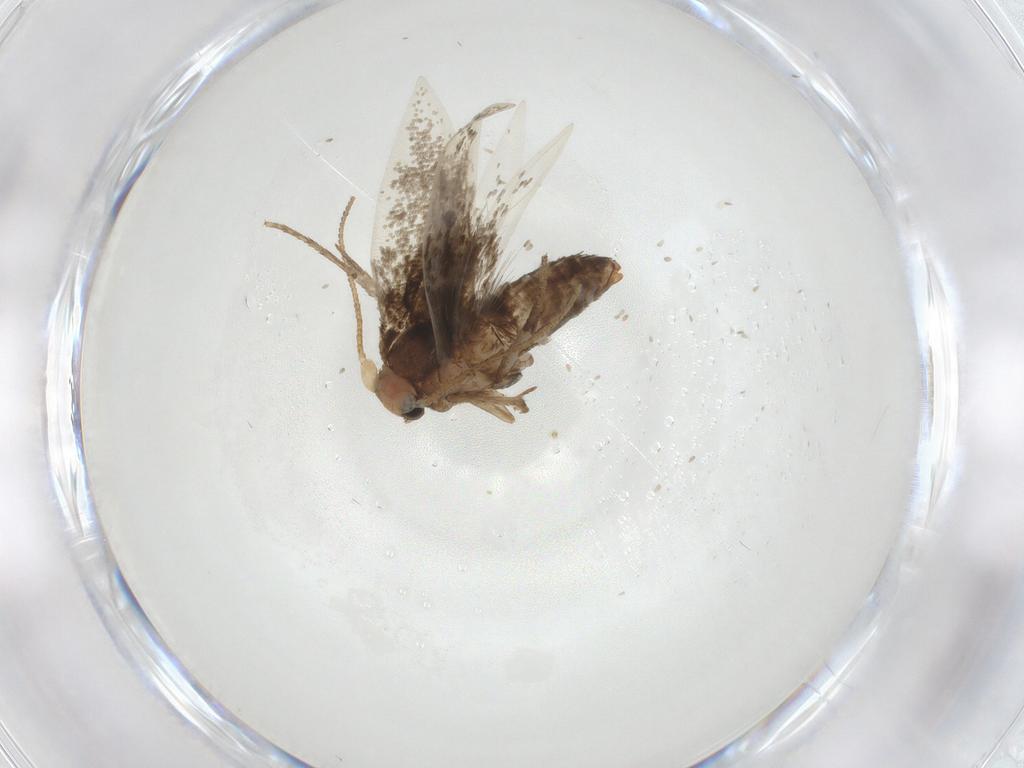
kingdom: Animalia
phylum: Arthropoda
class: Insecta
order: Lepidoptera
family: Nepticulidae
